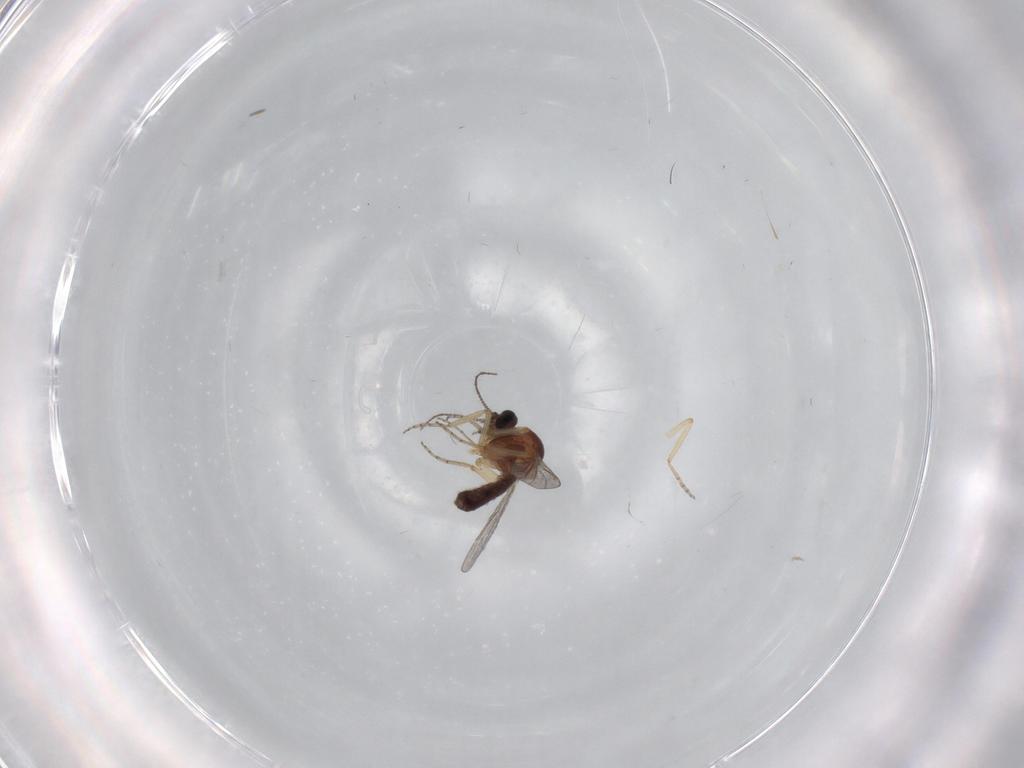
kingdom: Animalia
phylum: Arthropoda
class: Insecta
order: Diptera
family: Ceratopogonidae
